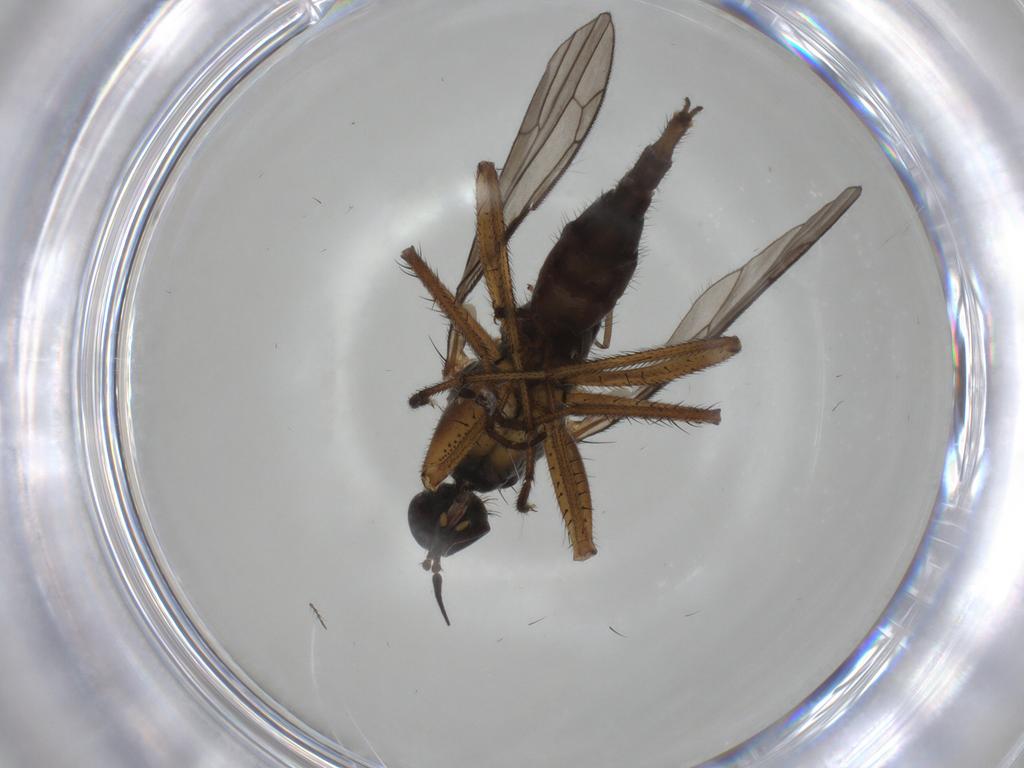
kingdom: Animalia
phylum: Arthropoda
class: Insecta
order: Diptera
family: Empididae
